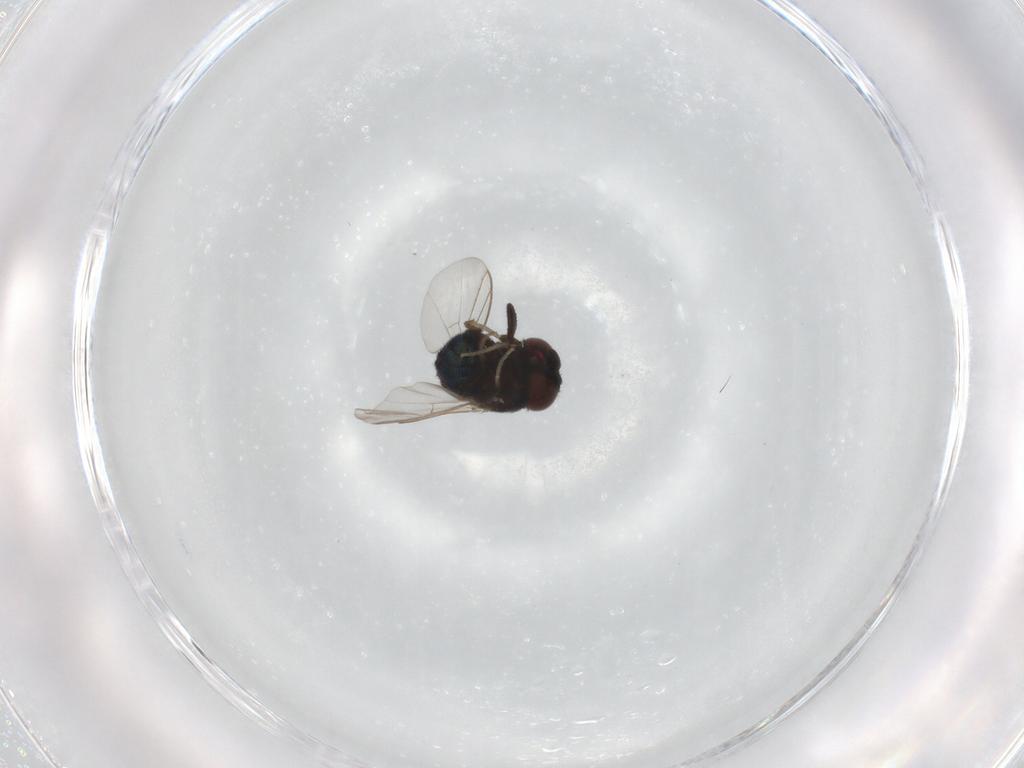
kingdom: Animalia
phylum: Arthropoda
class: Insecta
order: Diptera
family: Cryptochetidae
